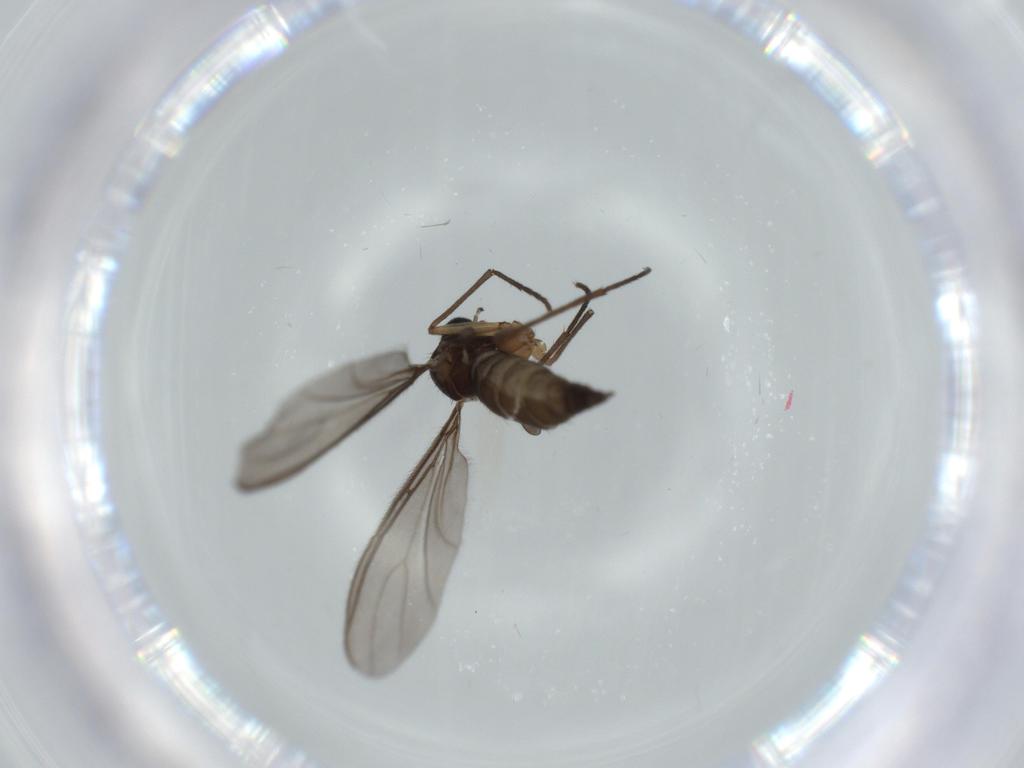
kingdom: Animalia
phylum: Arthropoda
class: Insecta
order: Diptera
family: Sciaridae
